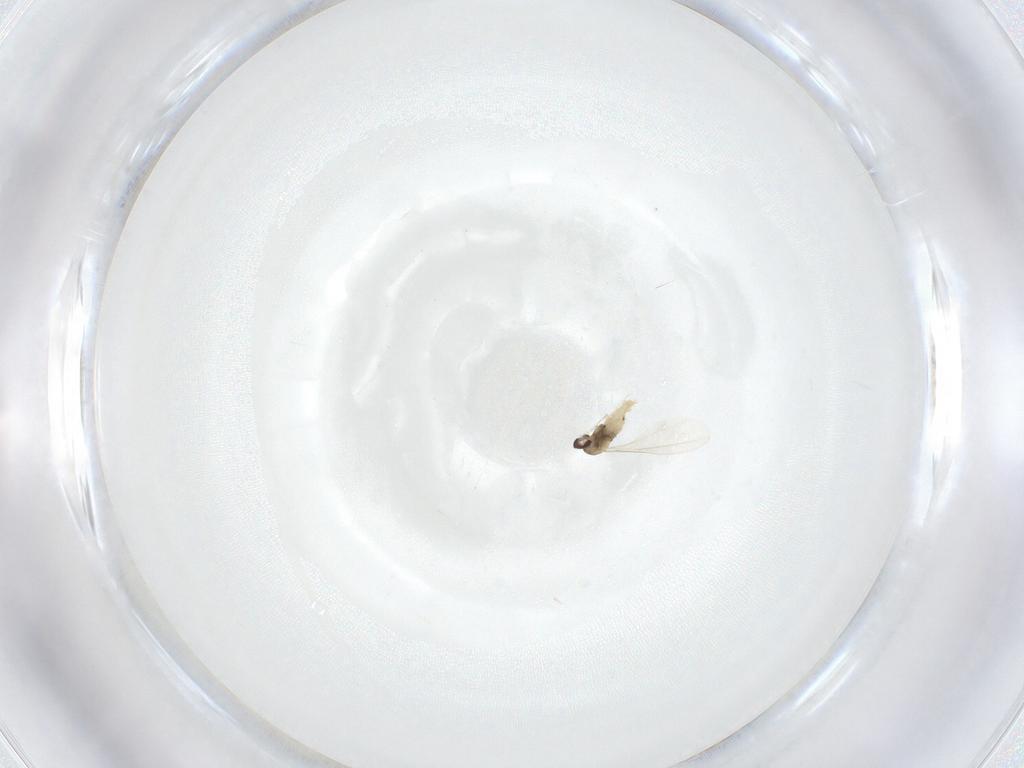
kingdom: Animalia
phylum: Arthropoda
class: Insecta
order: Diptera
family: Cecidomyiidae
